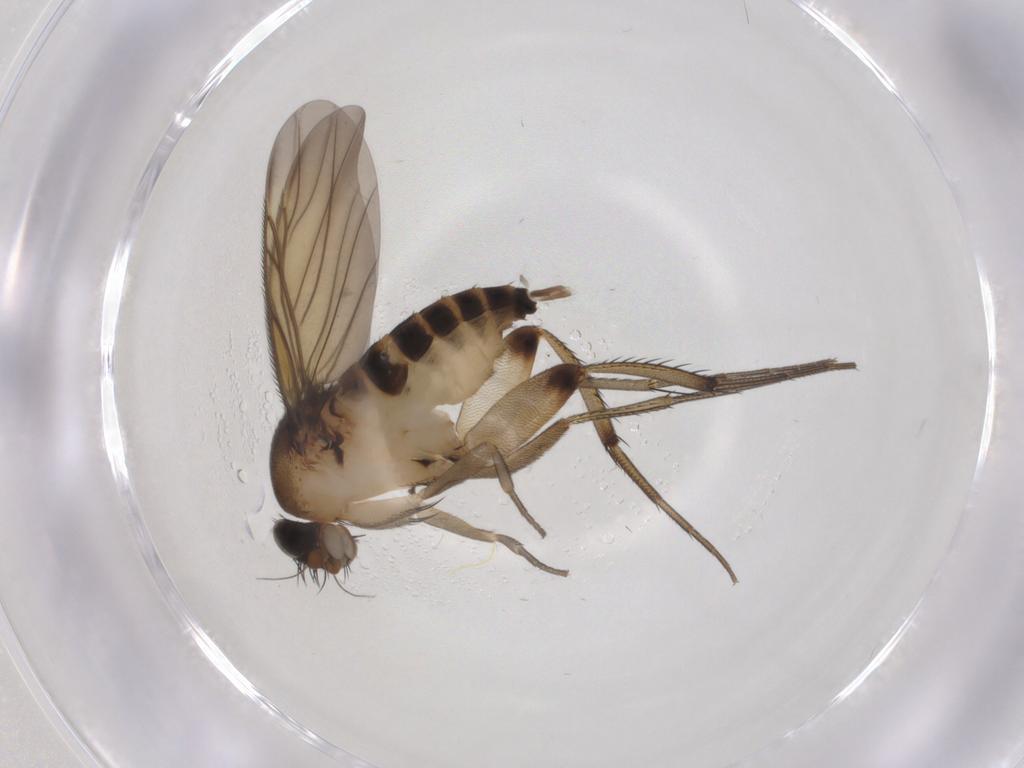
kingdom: Animalia
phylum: Arthropoda
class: Insecta
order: Diptera
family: Phoridae
